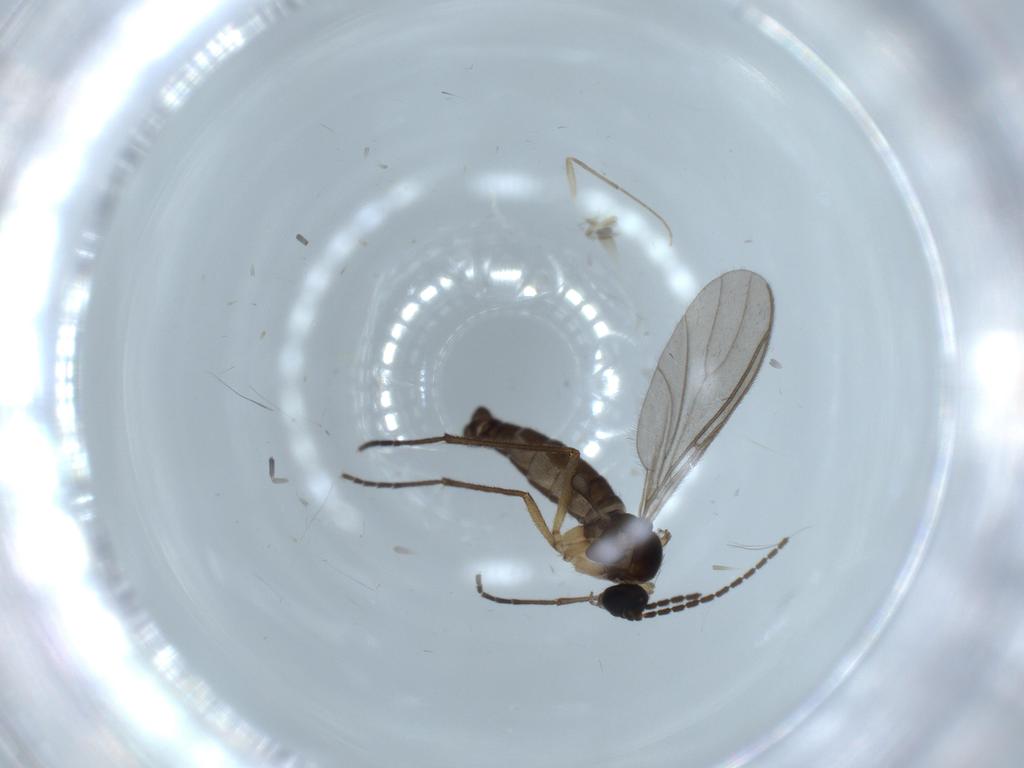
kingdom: Animalia
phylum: Arthropoda
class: Insecta
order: Diptera
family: Sciaridae
